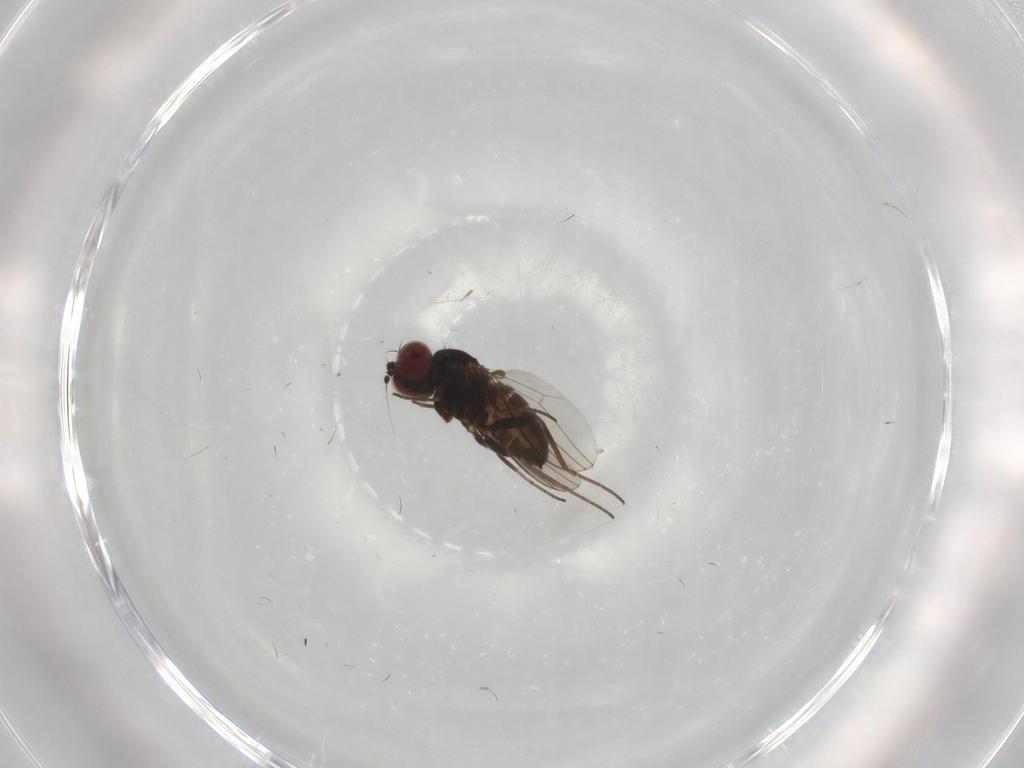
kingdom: Animalia
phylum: Arthropoda
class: Insecta
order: Diptera
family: Dolichopodidae
